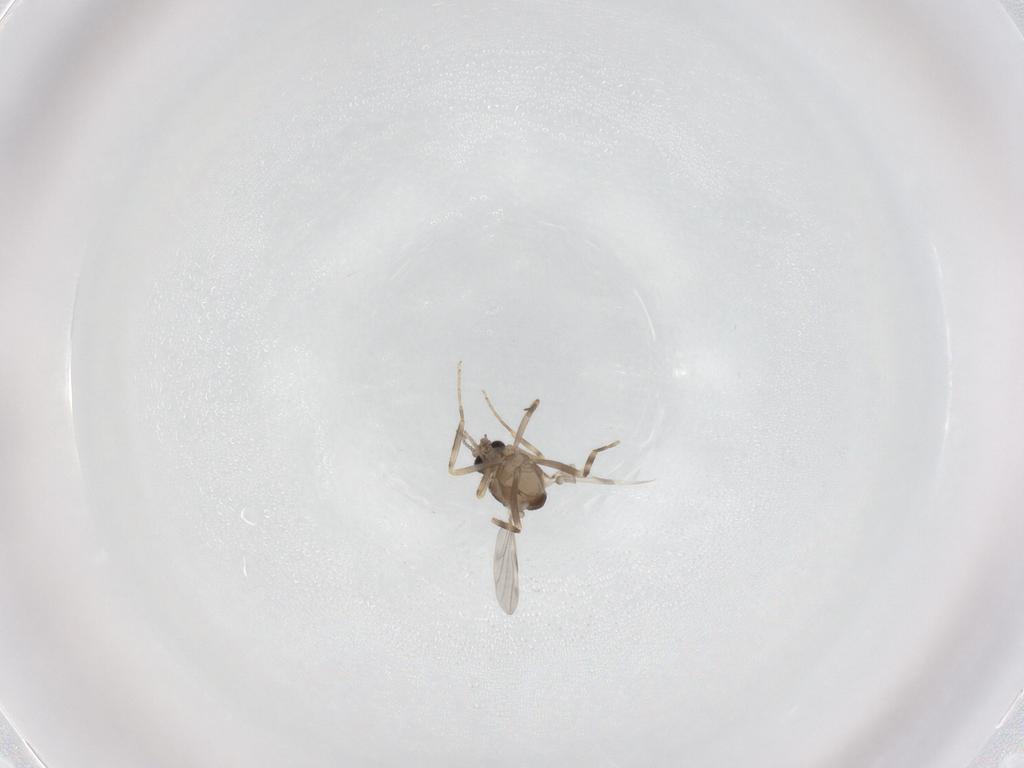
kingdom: Animalia
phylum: Arthropoda
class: Insecta
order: Diptera
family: Ceratopogonidae
